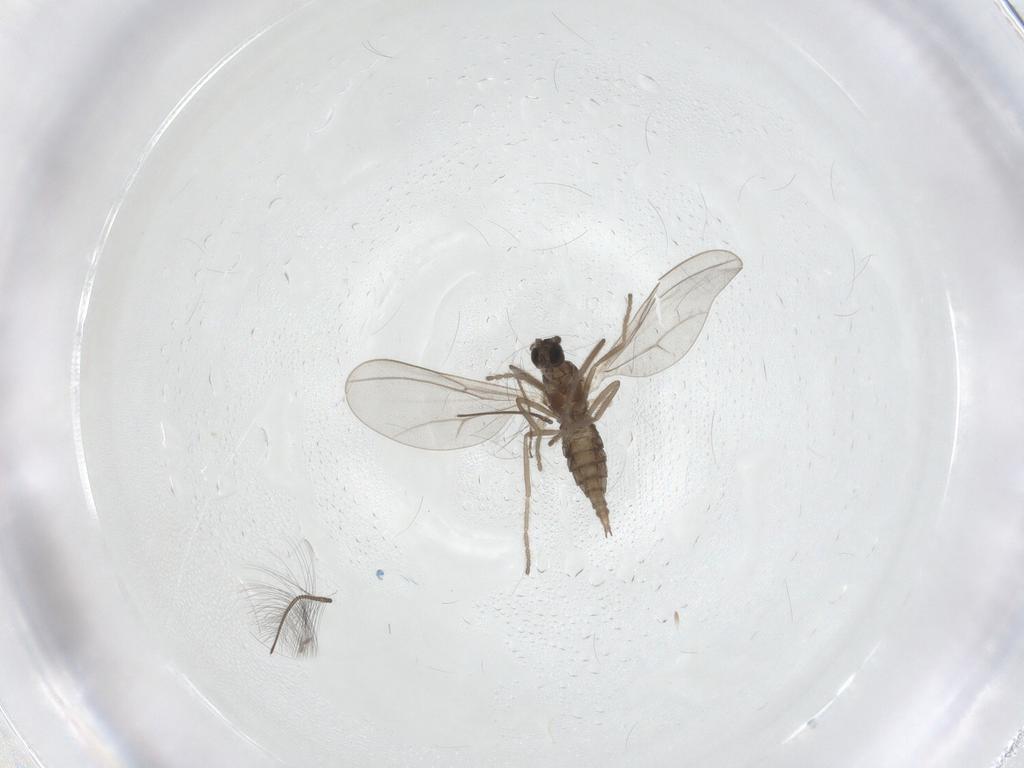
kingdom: Animalia
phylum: Arthropoda
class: Insecta
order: Diptera
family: Cecidomyiidae
